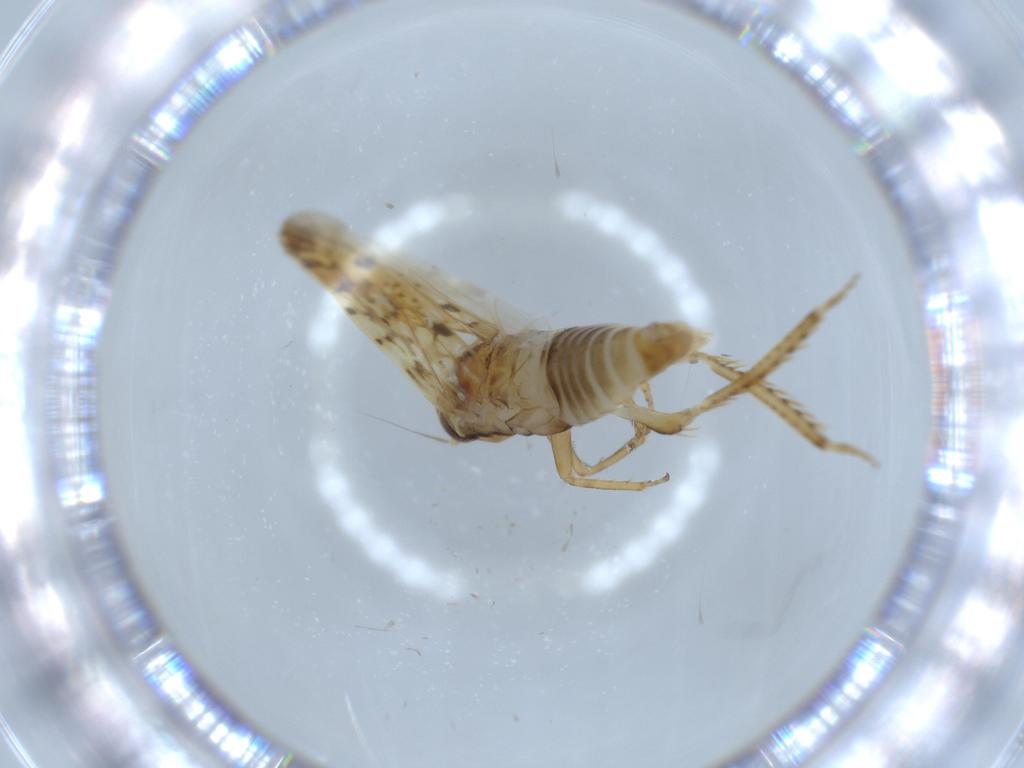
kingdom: Animalia
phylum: Arthropoda
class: Insecta
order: Hemiptera
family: Cicadellidae
